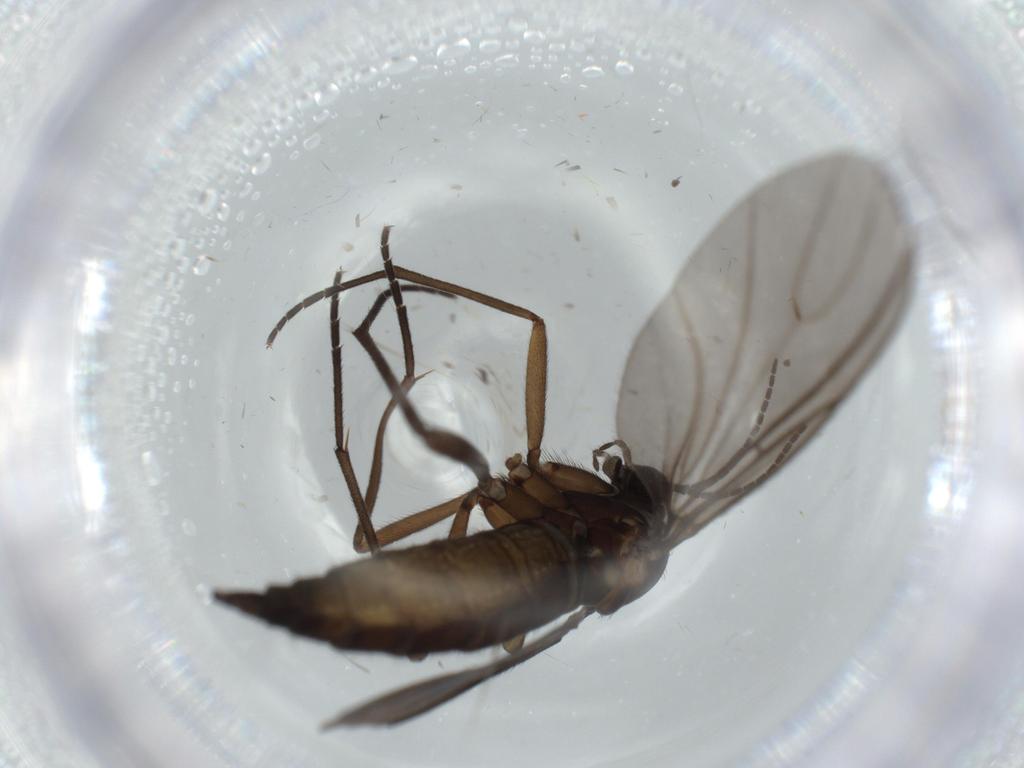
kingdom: Animalia
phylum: Arthropoda
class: Insecta
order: Diptera
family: Sciaridae
